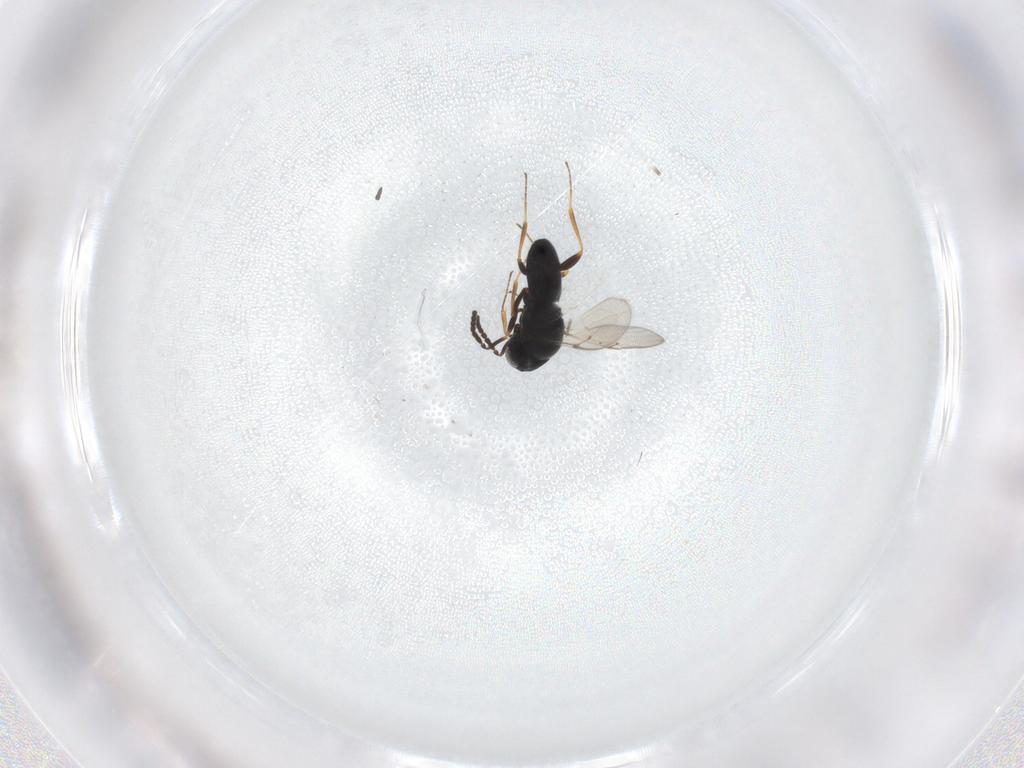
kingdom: Animalia
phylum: Arthropoda
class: Insecta
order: Hymenoptera
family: Scelionidae
